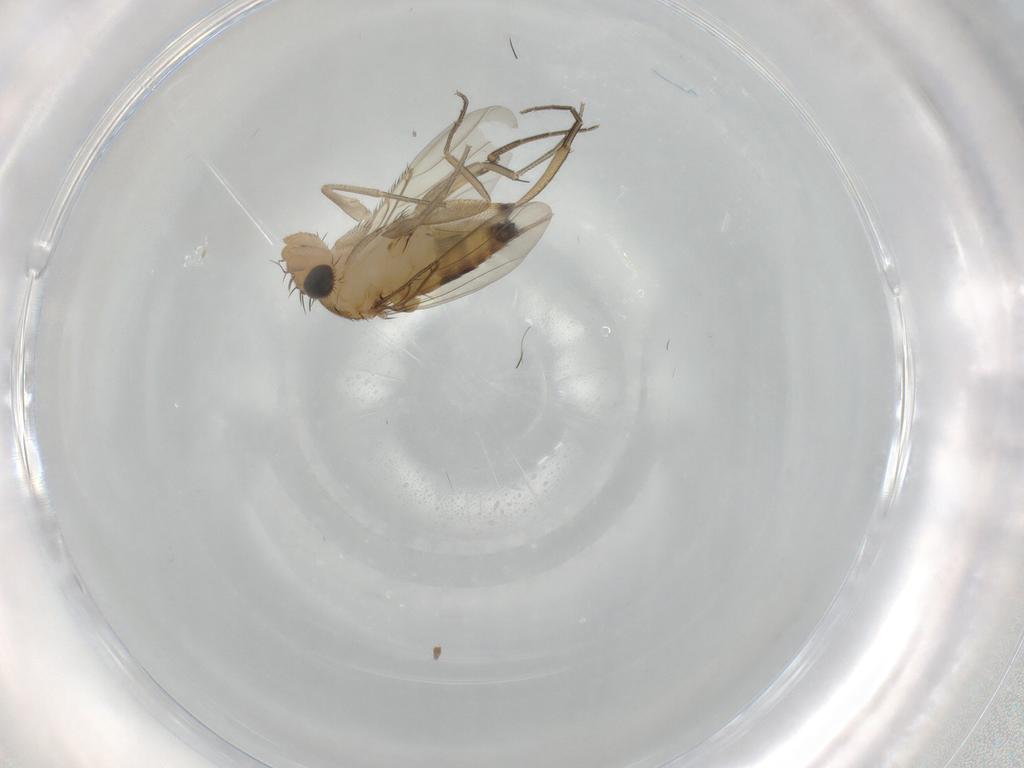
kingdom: Animalia
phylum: Arthropoda
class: Insecta
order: Diptera
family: Phoridae
